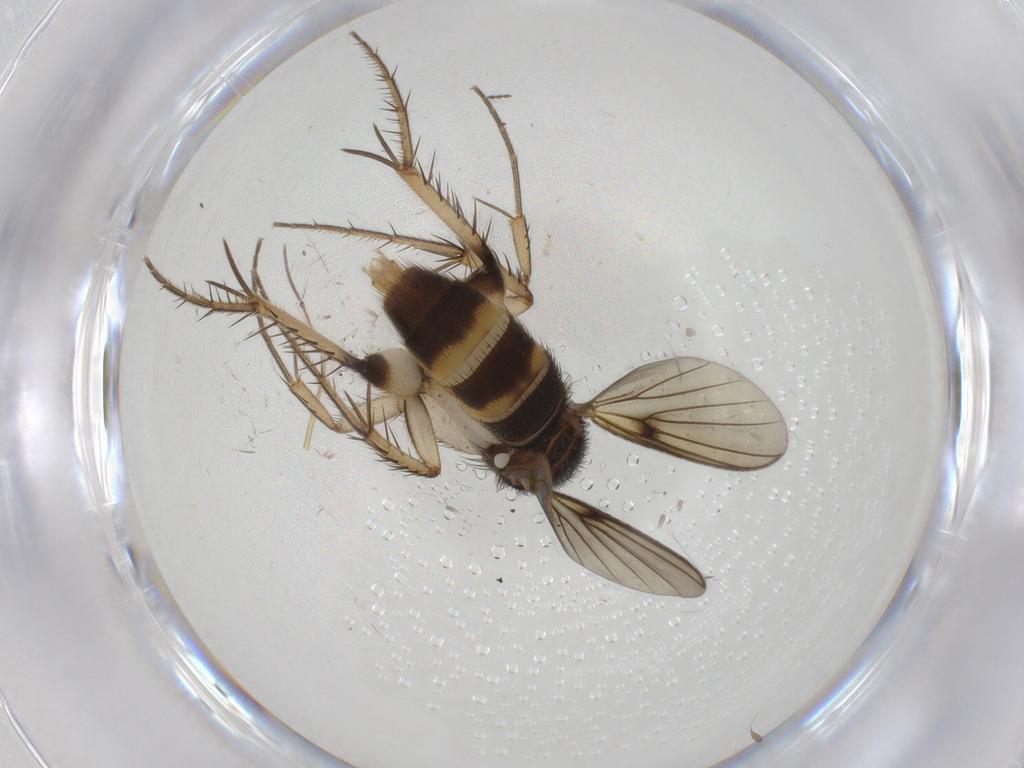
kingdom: Animalia
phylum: Arthropoda
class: Insecta
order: Diptera
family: Mycetophilidae
